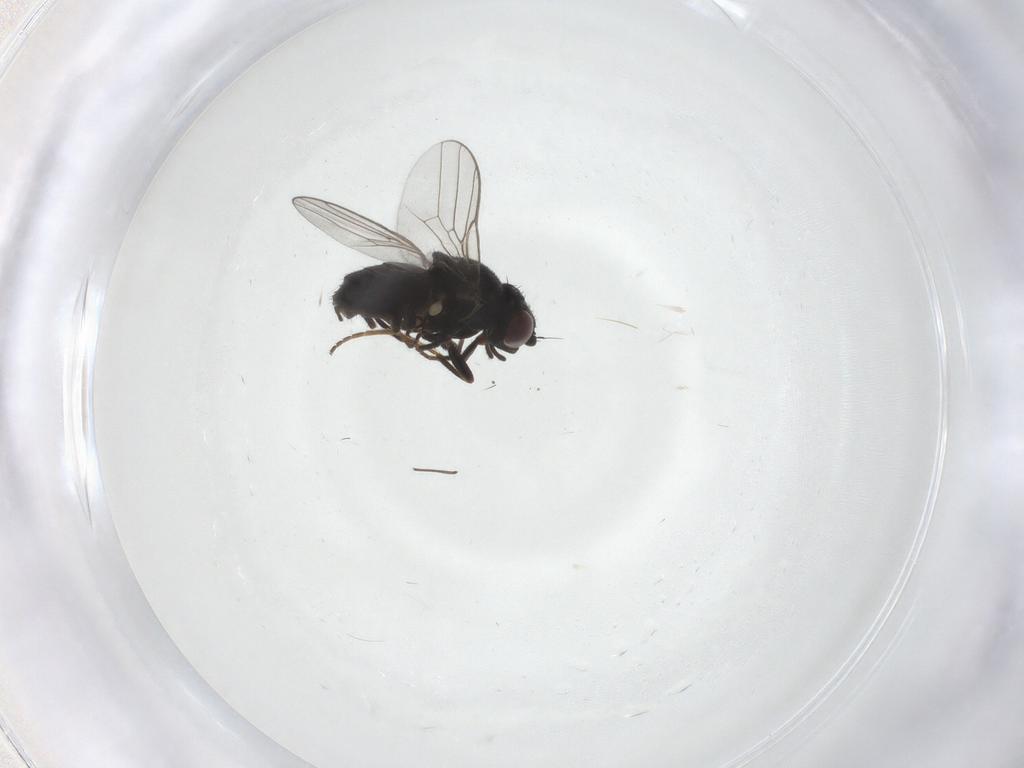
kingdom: Animalia
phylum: Arthropoda
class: Insecta
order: Diptera
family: Chloropidae
